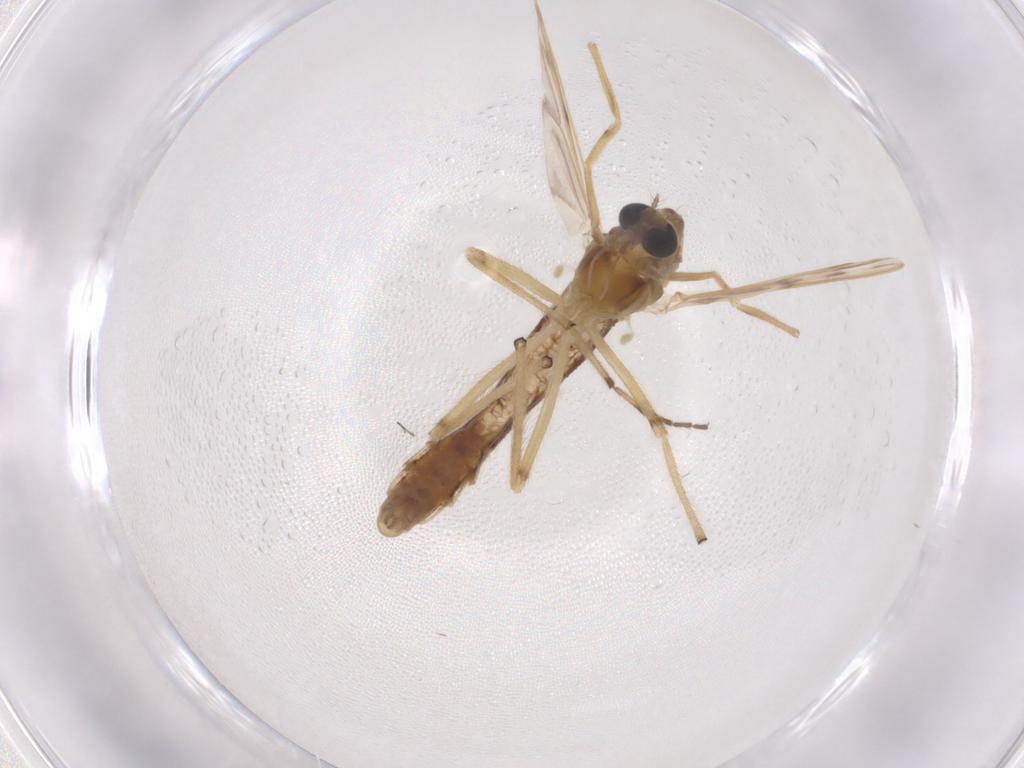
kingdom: Animalia
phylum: Arthropoda
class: Insecta
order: Diptera
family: Chironomidae
